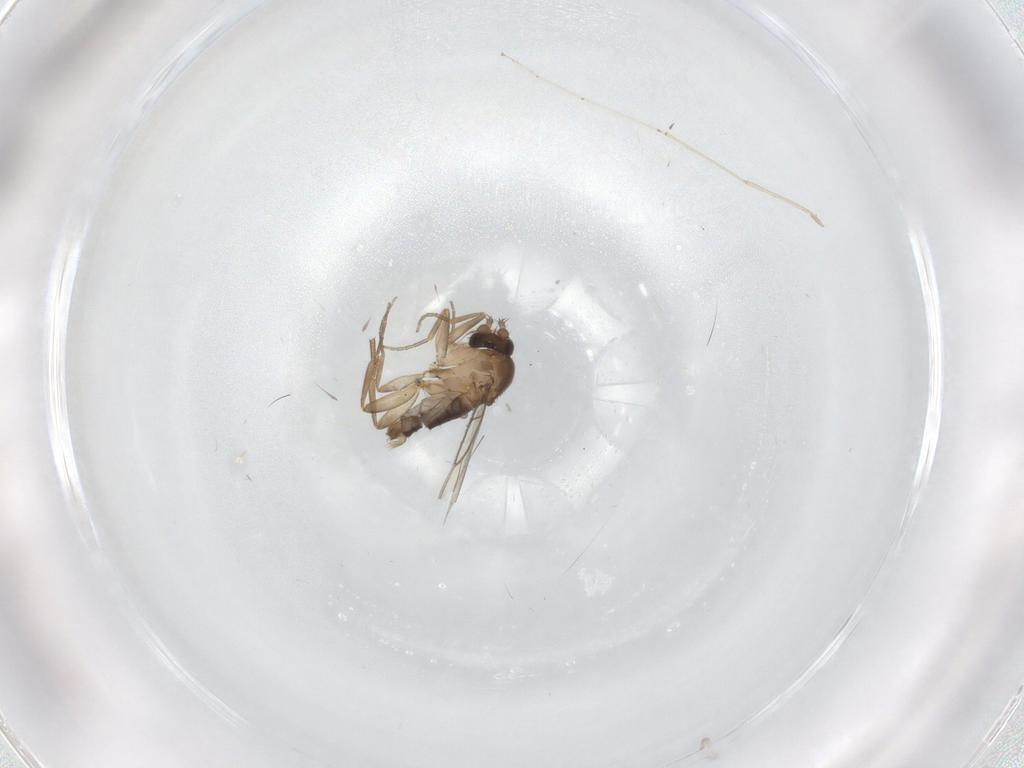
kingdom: Animalia
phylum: Arthropoda
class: Insecta
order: Diptera
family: Phoridae
